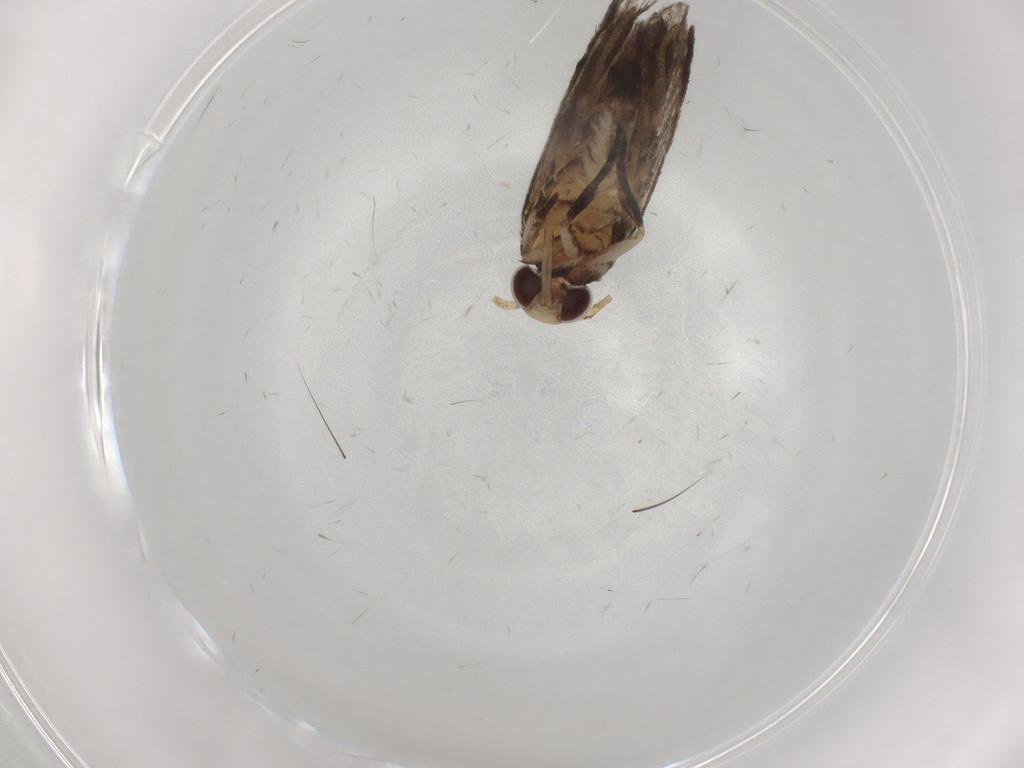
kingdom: Animalia
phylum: Arthropoda
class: Insecta
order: Lepidoptera
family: Gelechiidae
